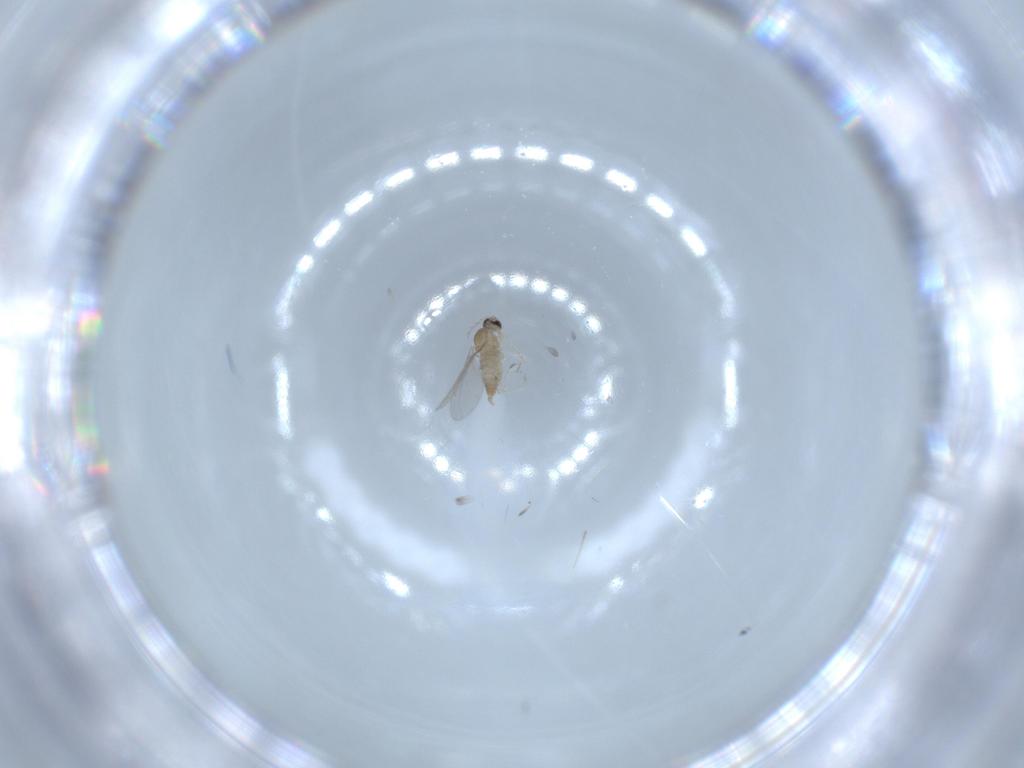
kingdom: Animalia
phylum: Arthropoda
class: Insecta
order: Diptera
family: Cecidomyiidae
